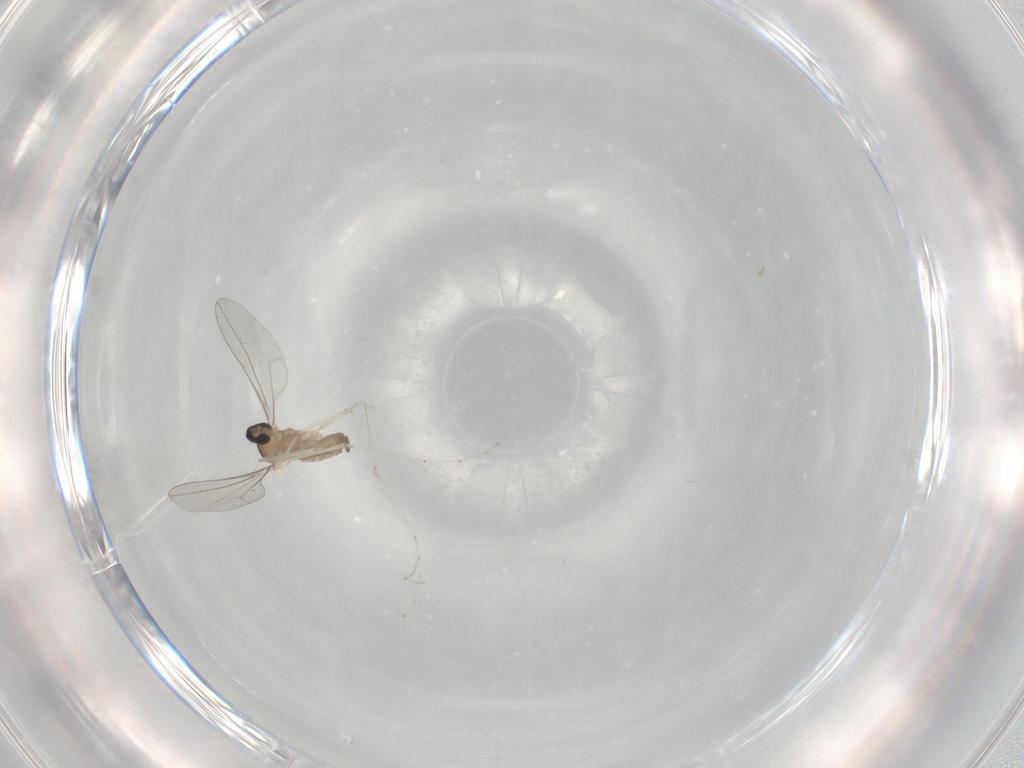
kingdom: Animalia
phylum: Arthropoda
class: Insecta
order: Diptera
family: Cecidomyiidae
